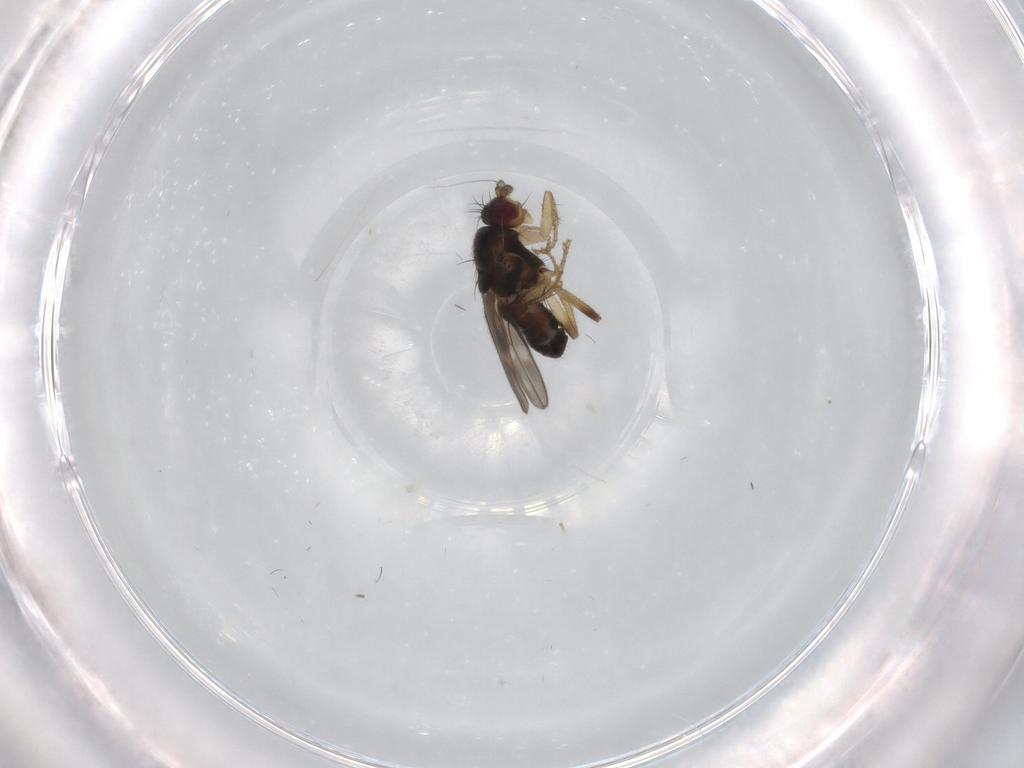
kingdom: Animalia
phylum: Arthropoda
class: Insecta
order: Diptera
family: Sphaeroceridae
